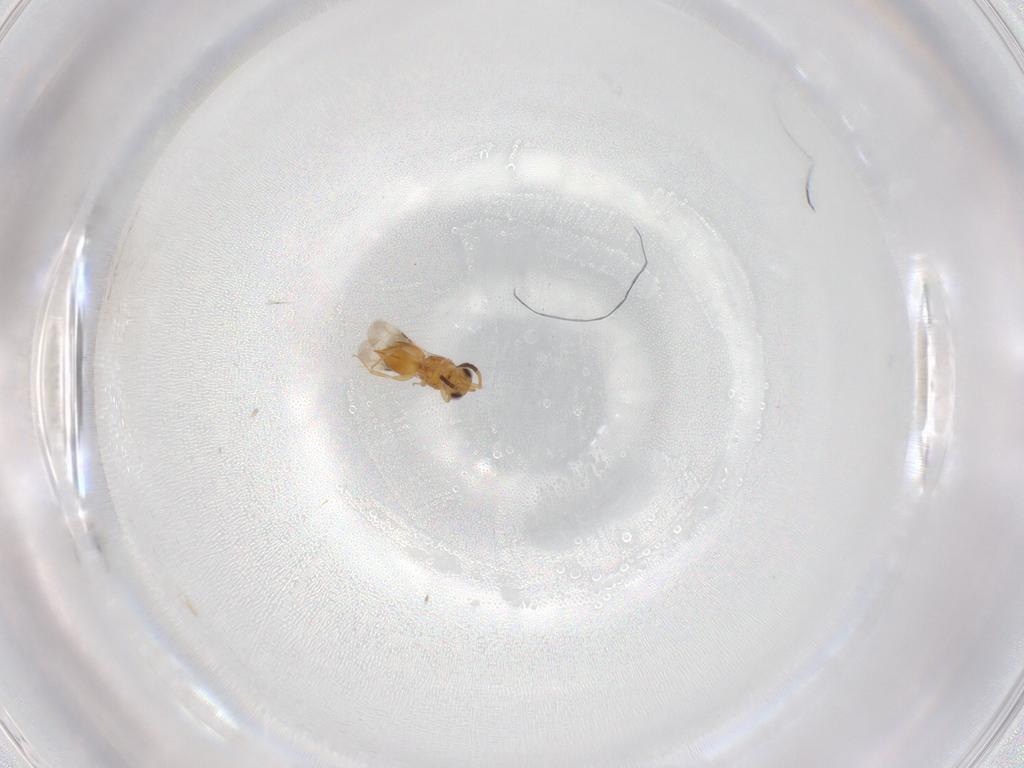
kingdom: Animalia
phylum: Arthropoda
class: Insecta
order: Hymenoptera
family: Ceraphronidae
